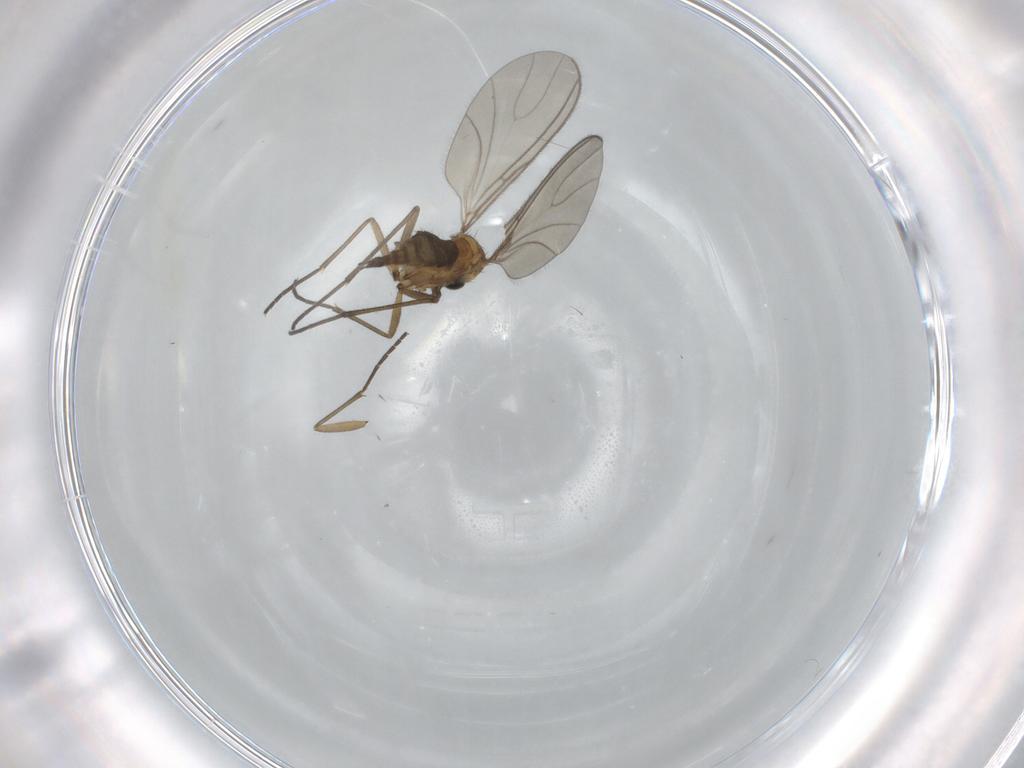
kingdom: Animalia
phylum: Arthropoda
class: Insecta
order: Diptera
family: Sciaridae
